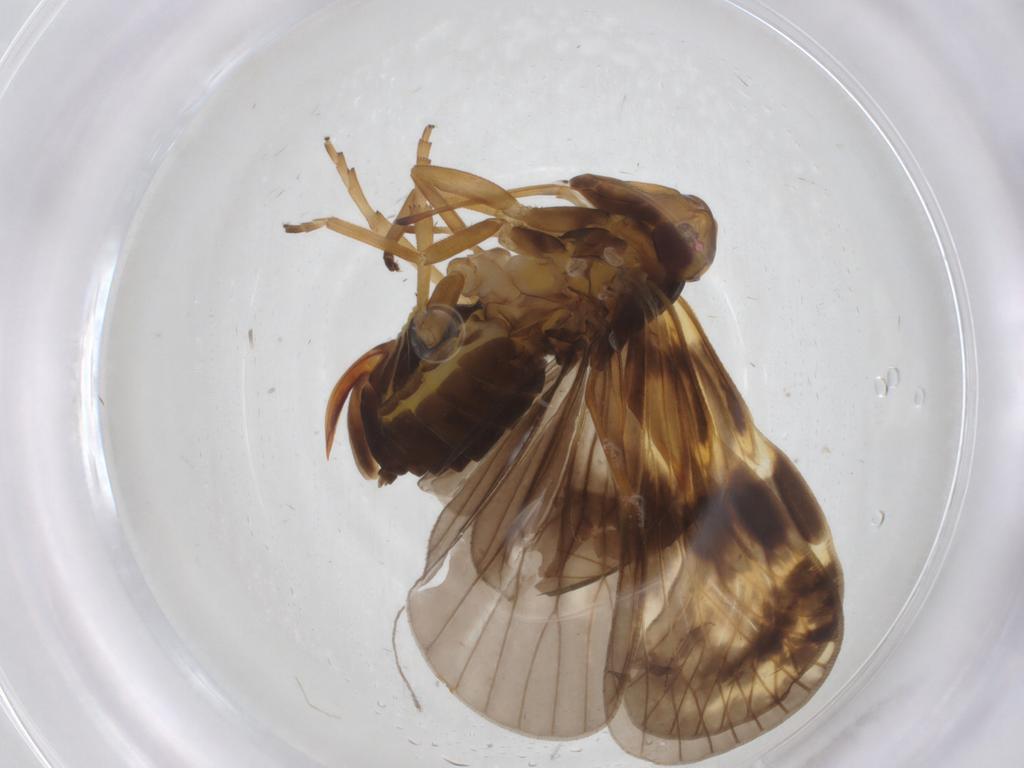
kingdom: Animalia
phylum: Arthropoda
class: Insecta
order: Hemiptera
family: Cixiidae
